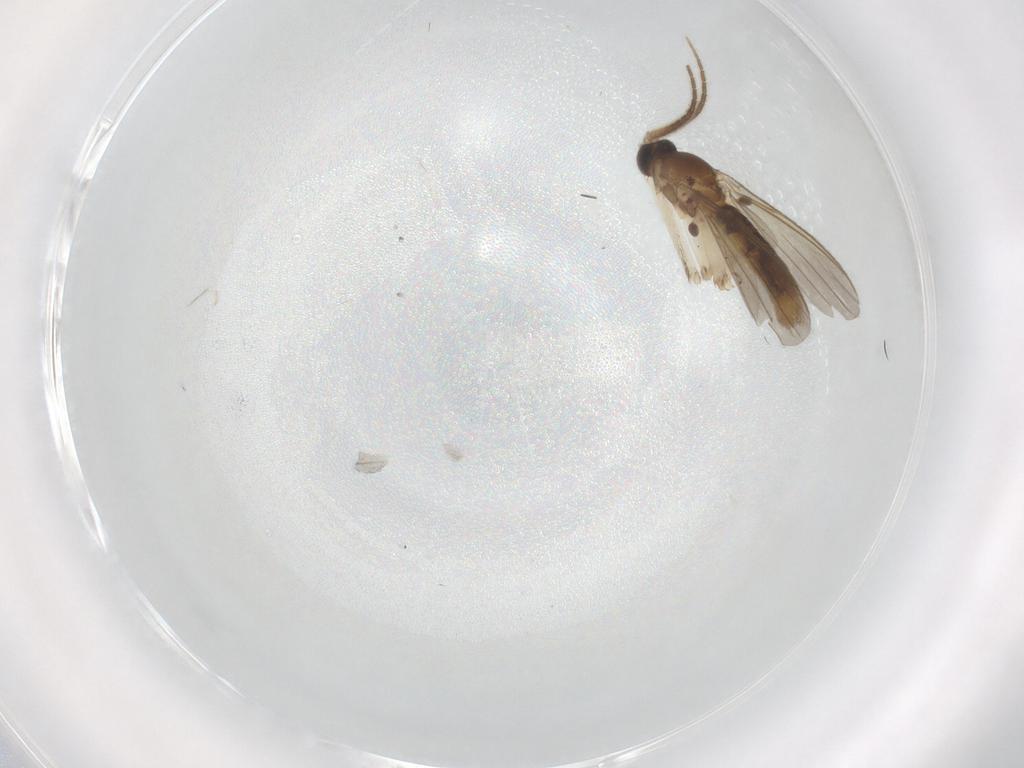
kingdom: Animalia
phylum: Arthropoda
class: Insecta
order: Diptera
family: Mycetophilidae
